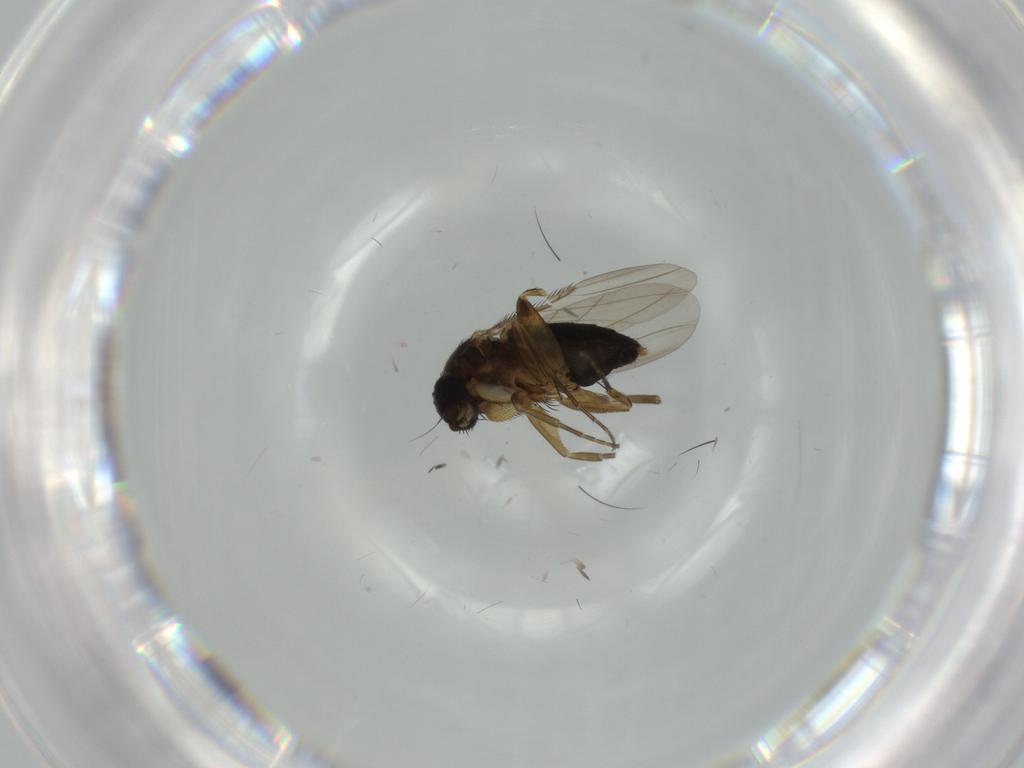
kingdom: Animalia
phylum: Arthropoda
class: Insecta
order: Diptera
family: Phoridae
